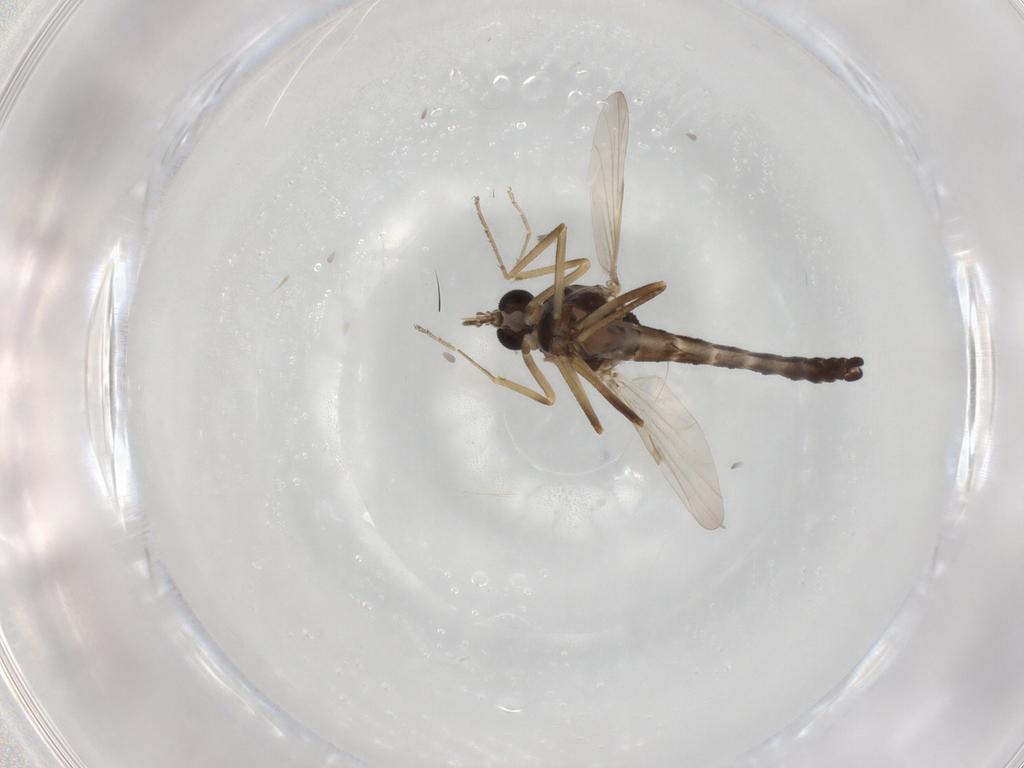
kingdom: Animalia
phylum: Arthropoda
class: Insecta
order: Diptera
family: Ceratopogonidae
